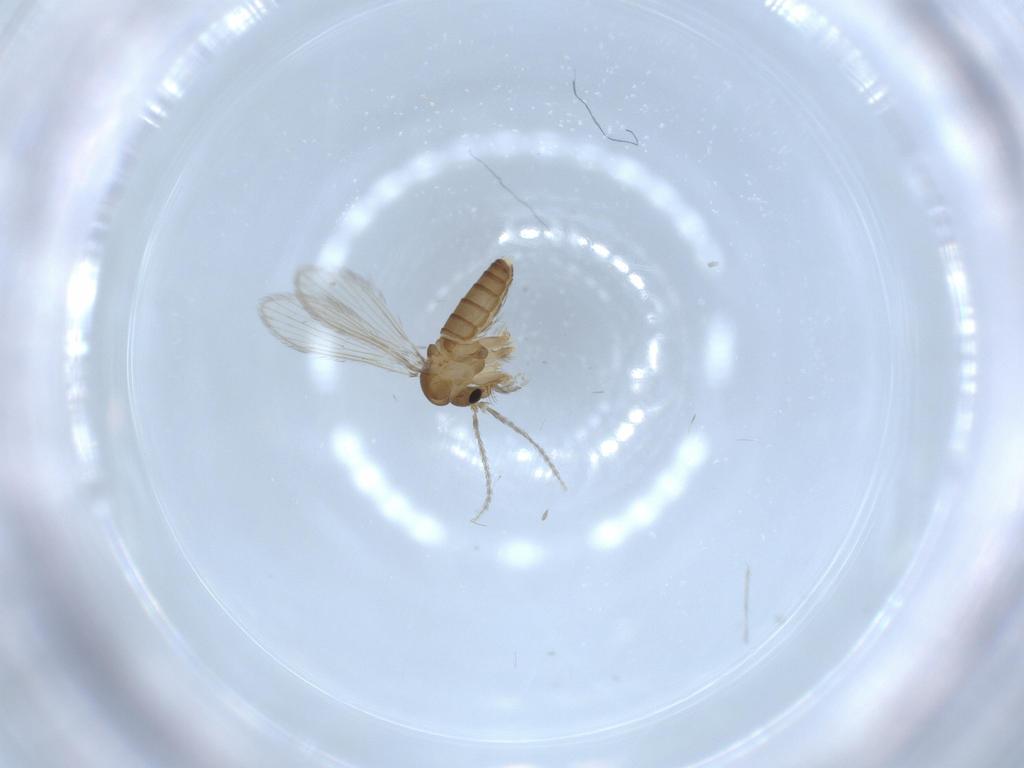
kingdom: Animalia
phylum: Arthropoda
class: Insecta
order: Diptera
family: Psychodidae
